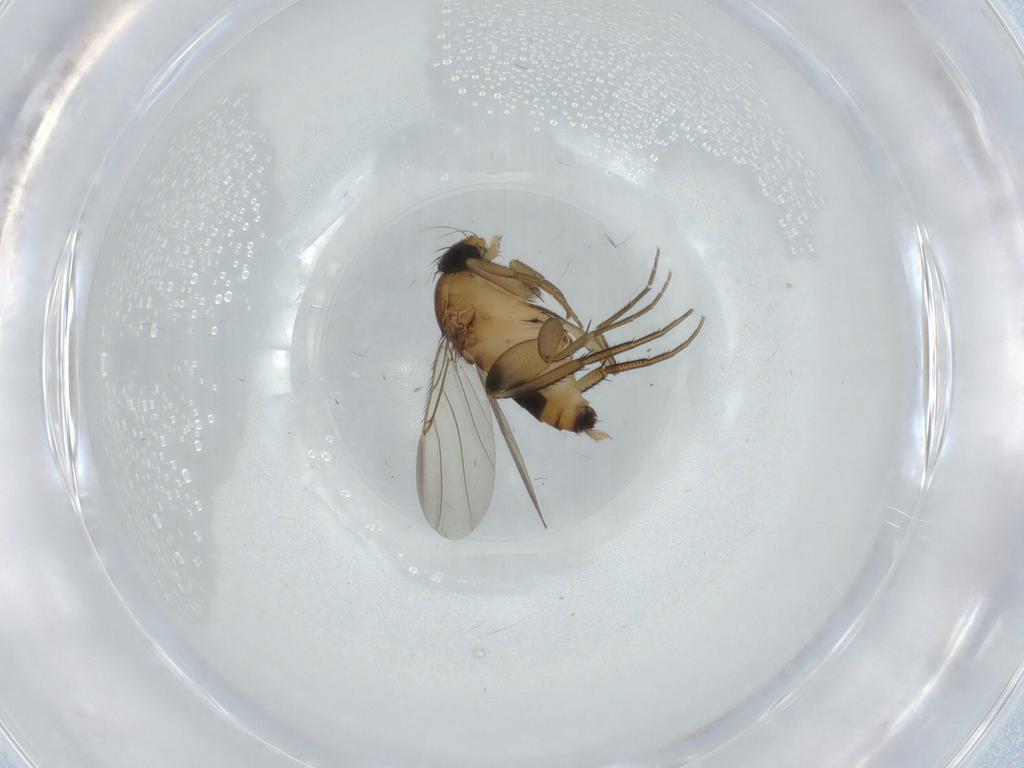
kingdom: Animalia
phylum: Arthropoda
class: Insecta
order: Diptera
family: Phoridae
